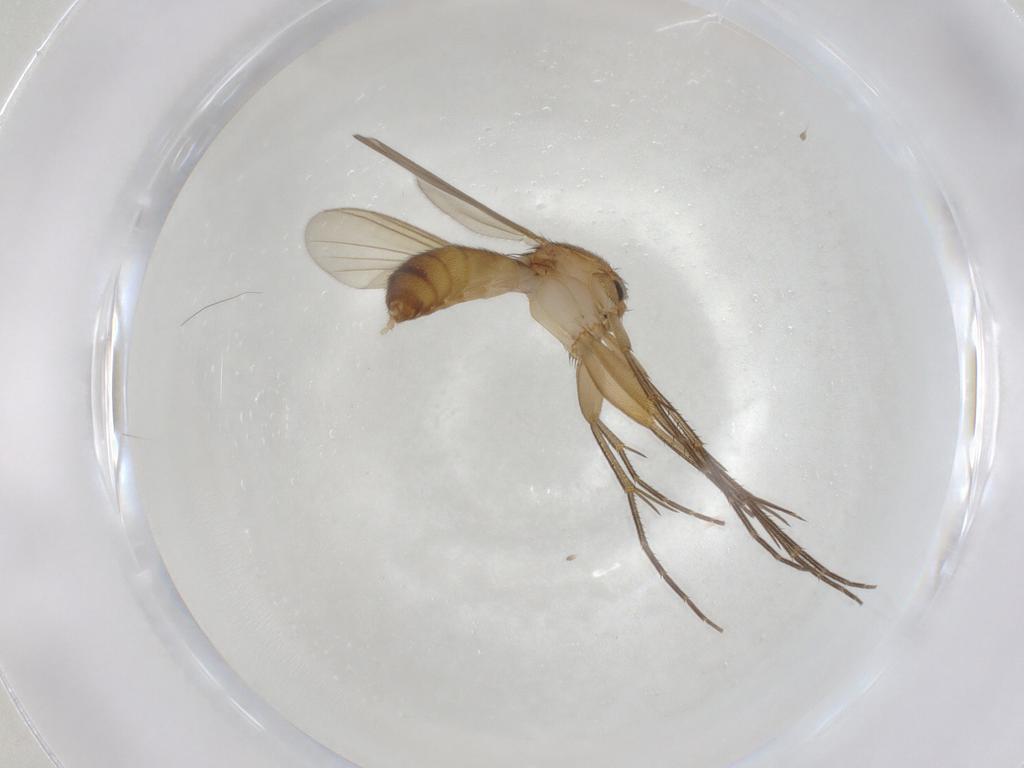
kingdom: Animalia
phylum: Arthropoda
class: Insecta
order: Diptera
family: Mycetophilidae
